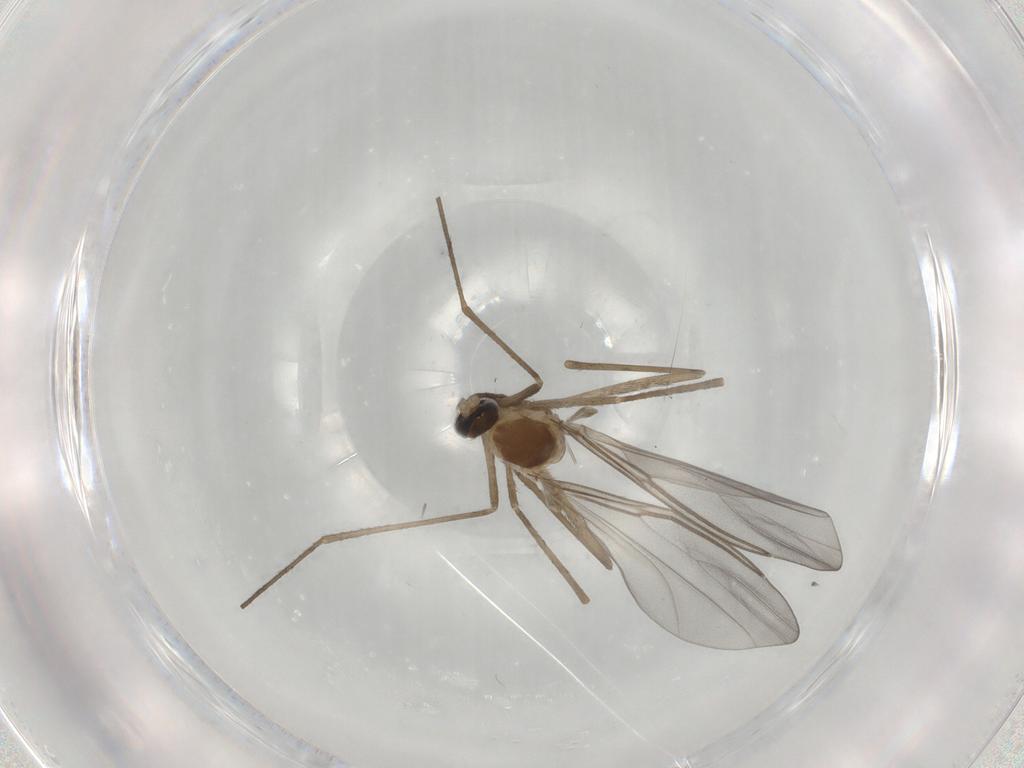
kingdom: Animalia
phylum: Arthropoda
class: Insecta
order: Diptera
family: Cecidomyiidae
